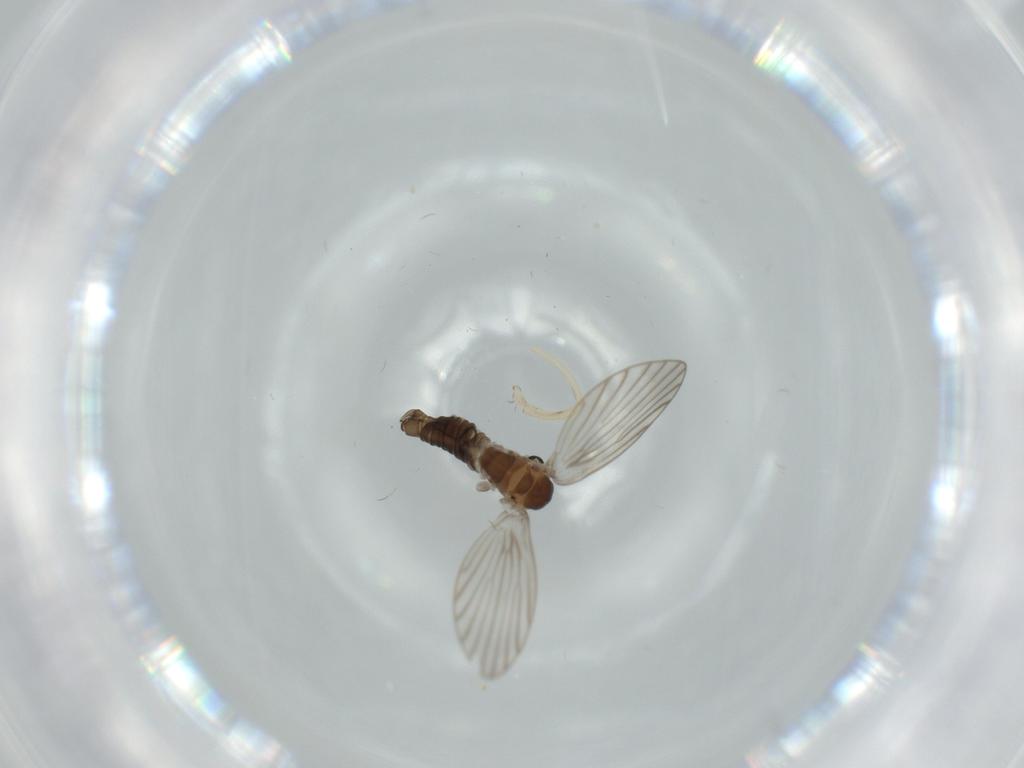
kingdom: Animalia
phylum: Arthropoda
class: Insecta
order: Diptera
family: Psychodidae
